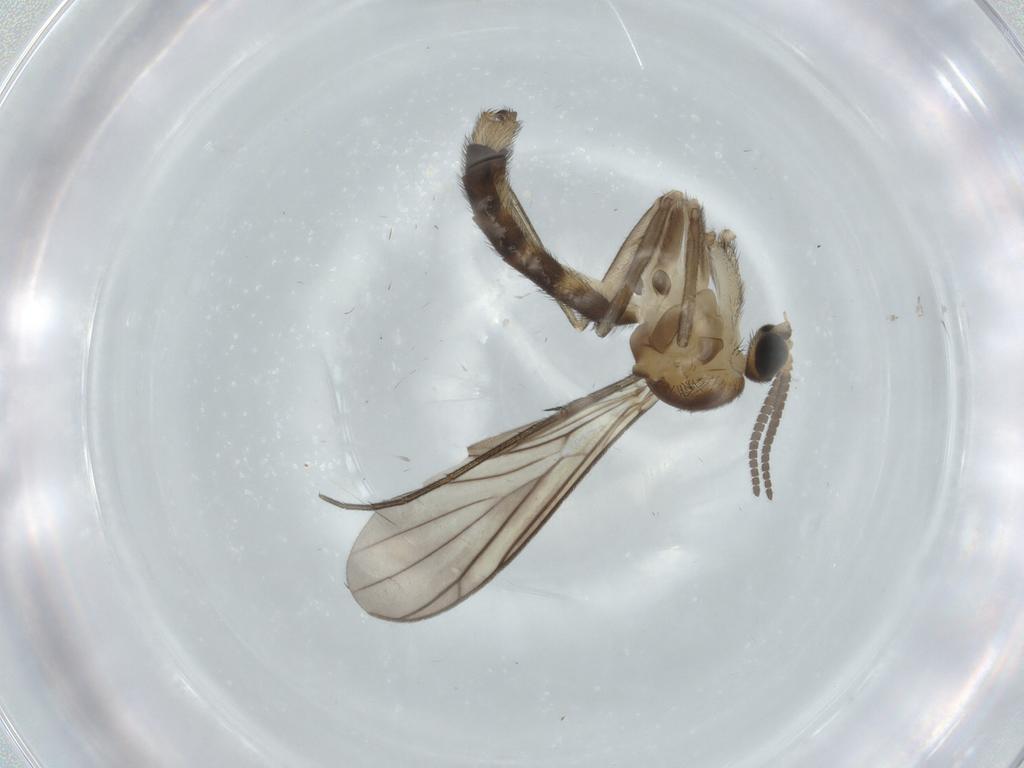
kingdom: Animalia
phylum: Arthropoda
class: Insecta
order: Diptera
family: Mycetophilidae
